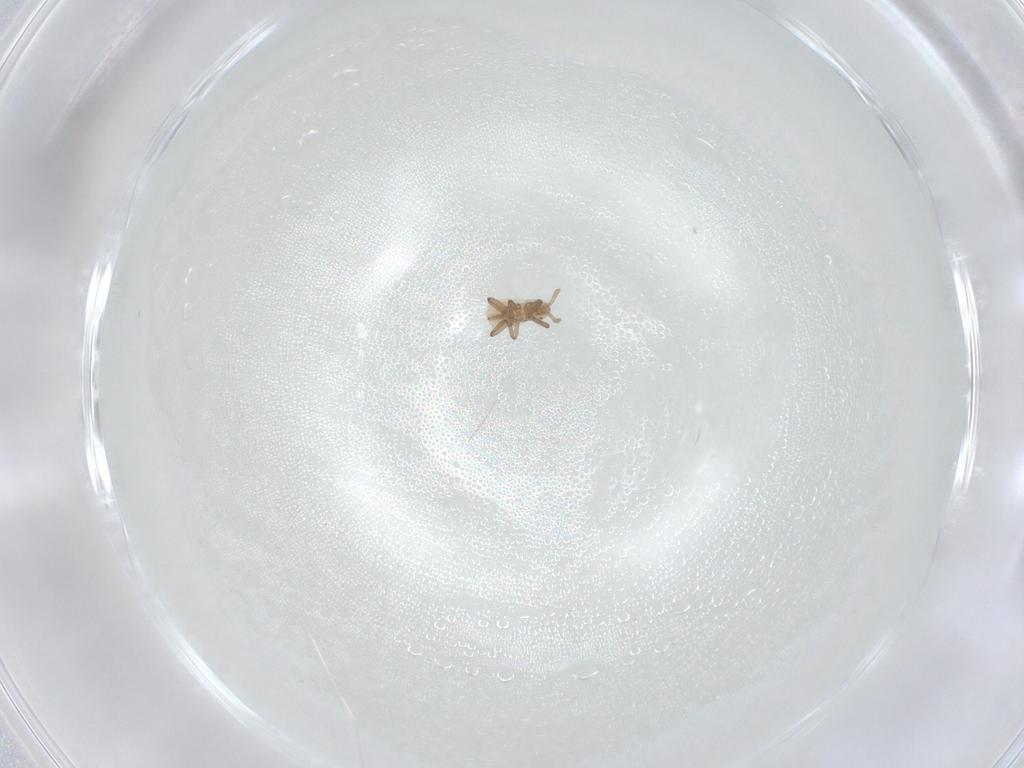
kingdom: Animalia
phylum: Arthropoda
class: Insecta
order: Hemiptera
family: Aphididae
